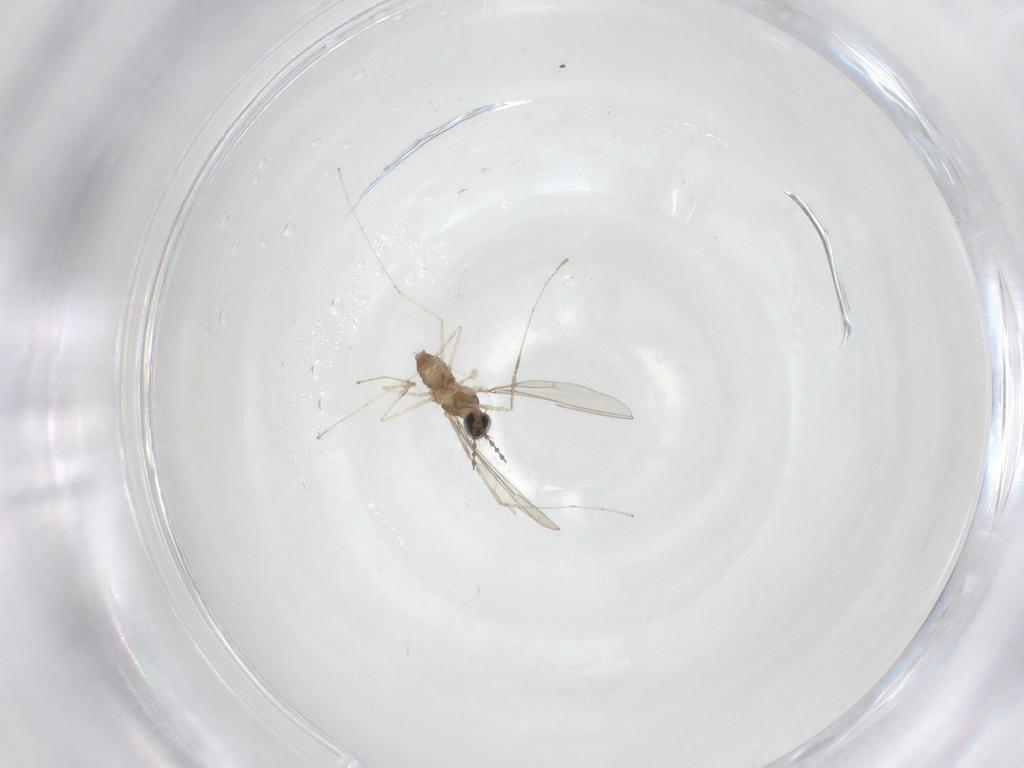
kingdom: Animalia
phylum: Arthropoda
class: Insecta
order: Diptera
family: Cecidomyiidae
